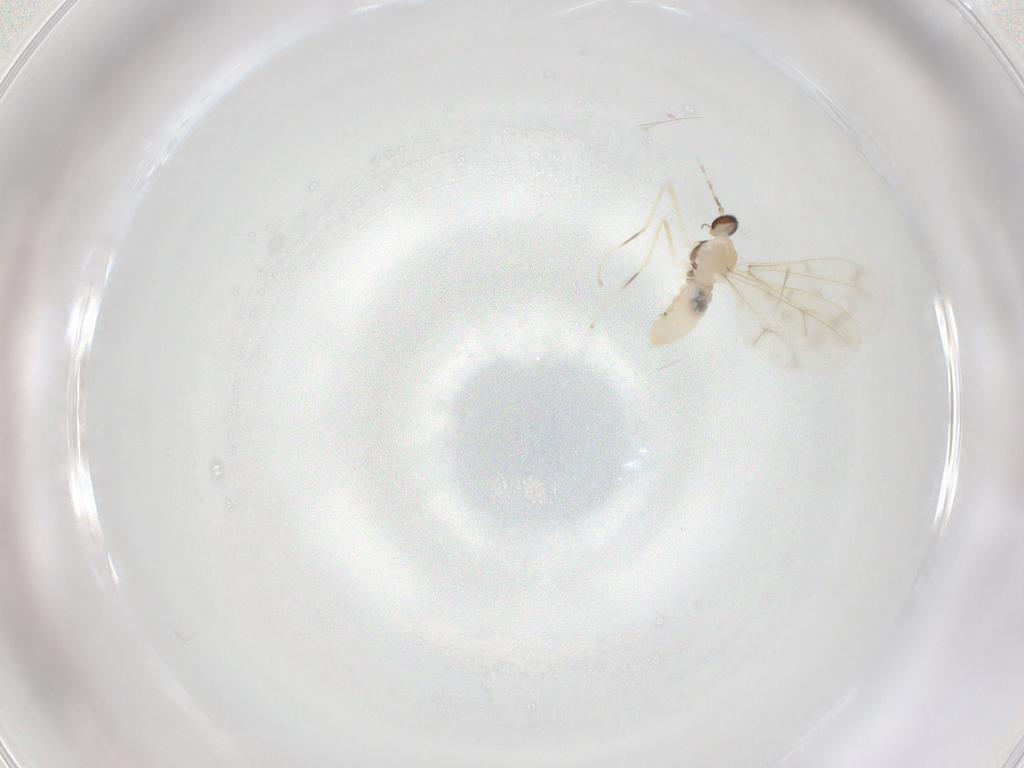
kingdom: Animalia
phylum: Arthropoda
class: Insecta
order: Diptera
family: Cecidomyiidae
